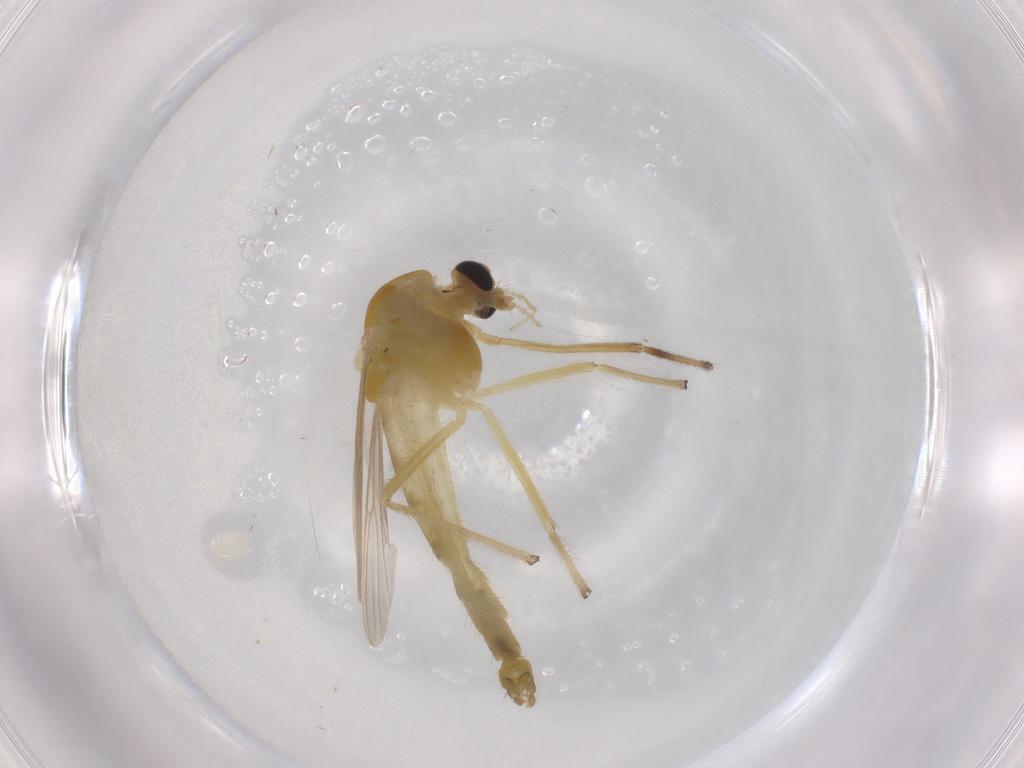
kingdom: Animalia
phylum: Arthropoda
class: Insecta
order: Diptera
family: Chironomidae
